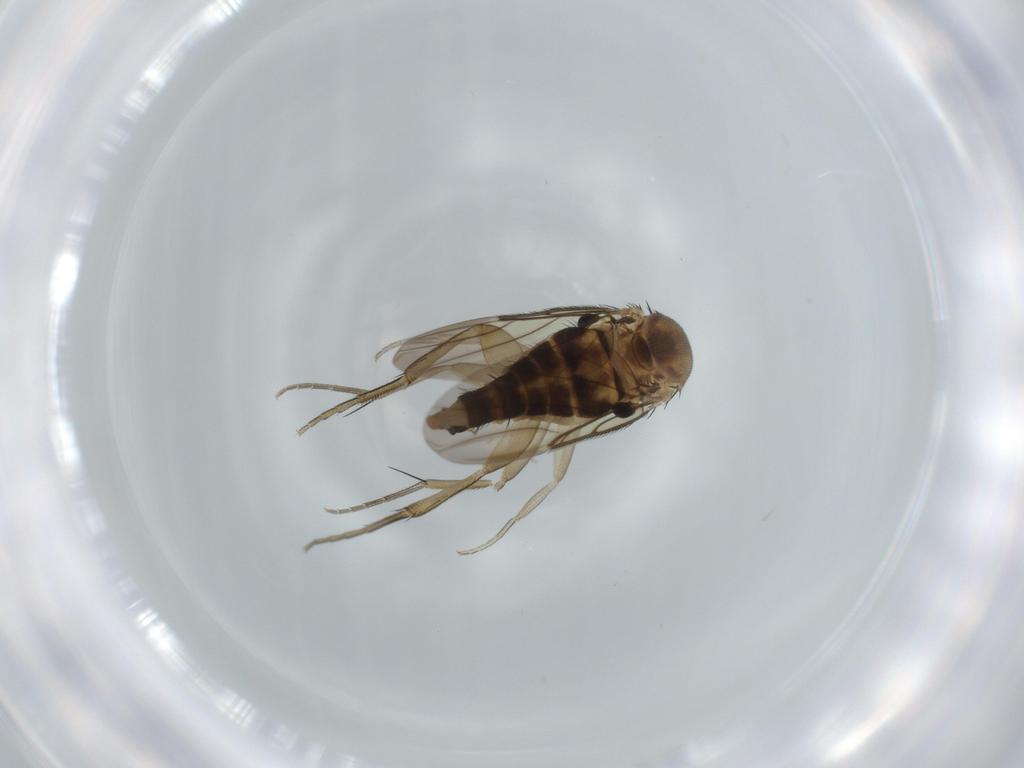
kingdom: Animalia
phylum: Arthropoda
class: Insecta
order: Diptera
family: Phoridae
